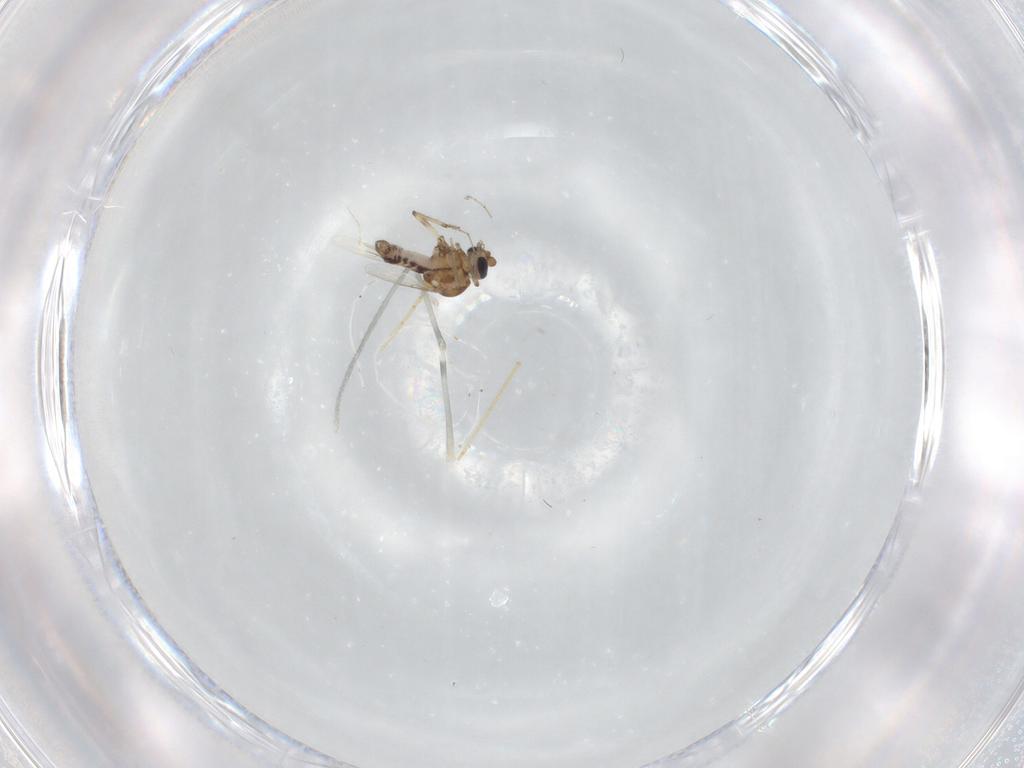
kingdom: Animalia
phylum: Arthropoda
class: Insecta
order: Diptera
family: Ceratopogonidae
